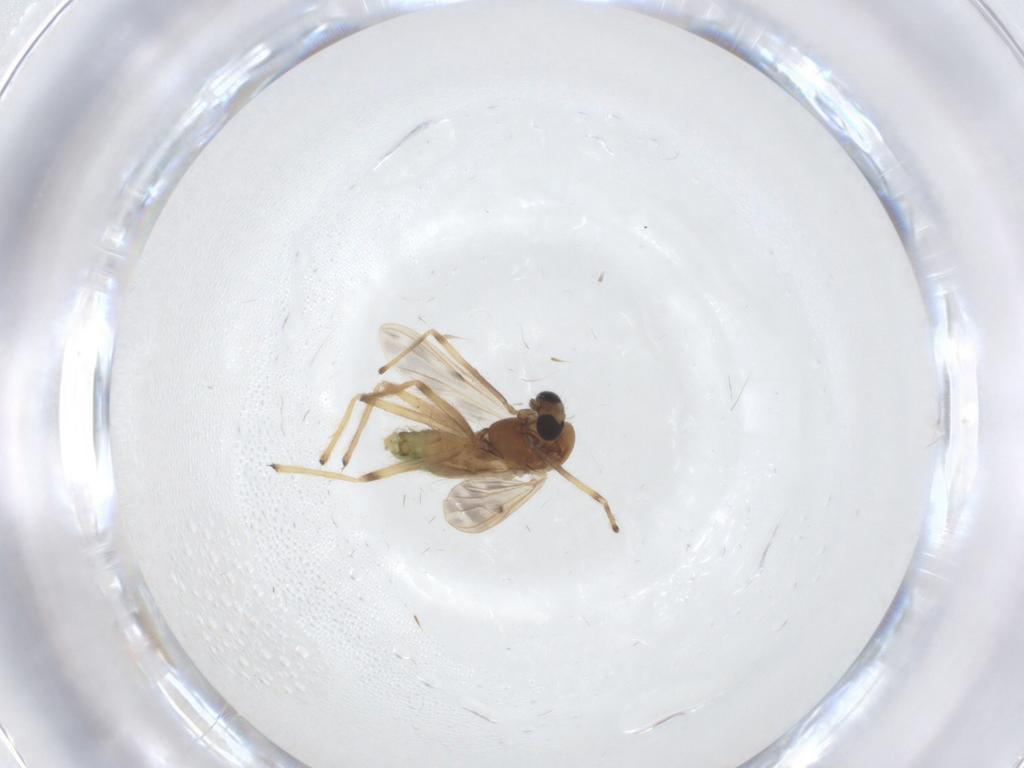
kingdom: Animalia
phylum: Arthropoda
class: Insecta
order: Diptera
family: Chironomidae
